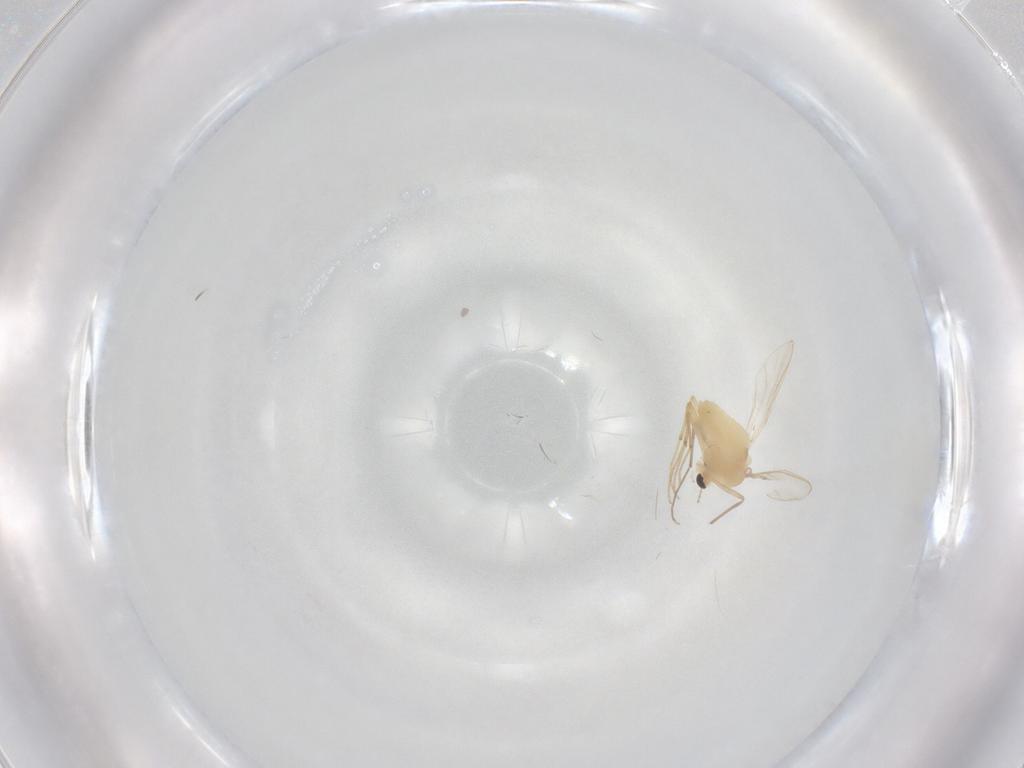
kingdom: Animalia
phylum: Arthropoda
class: Insecta
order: Diptera
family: Chironomidae
